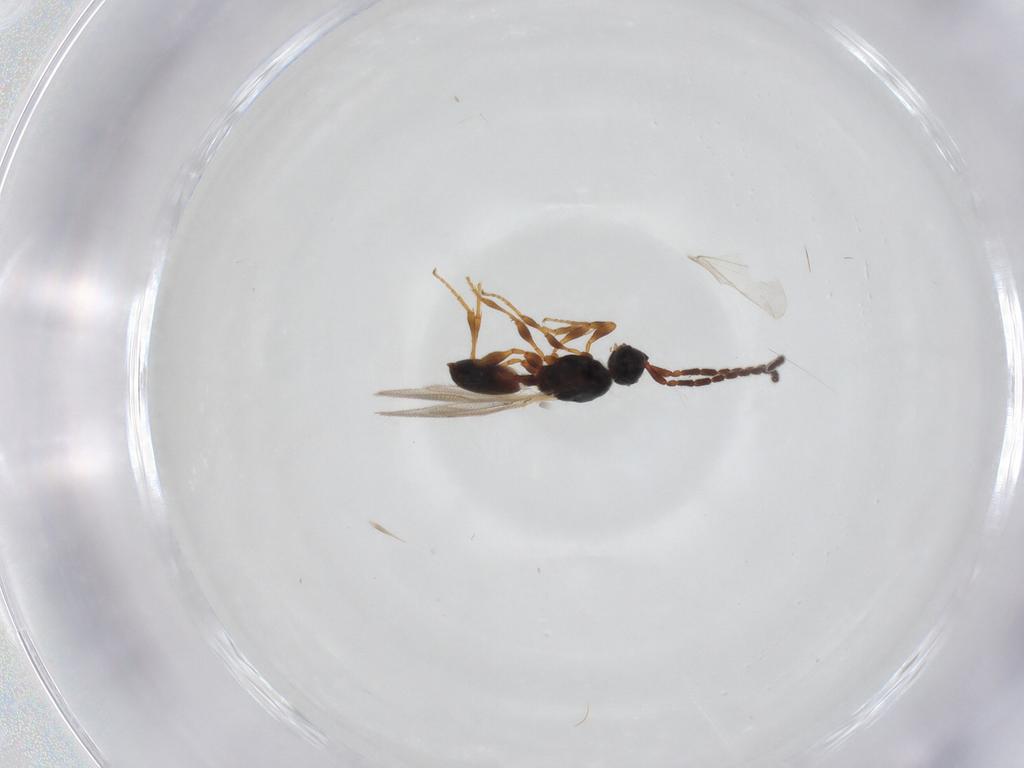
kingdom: Animalia
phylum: Arthropoda
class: Insecta
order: Hymenoptera
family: Diapriidae
